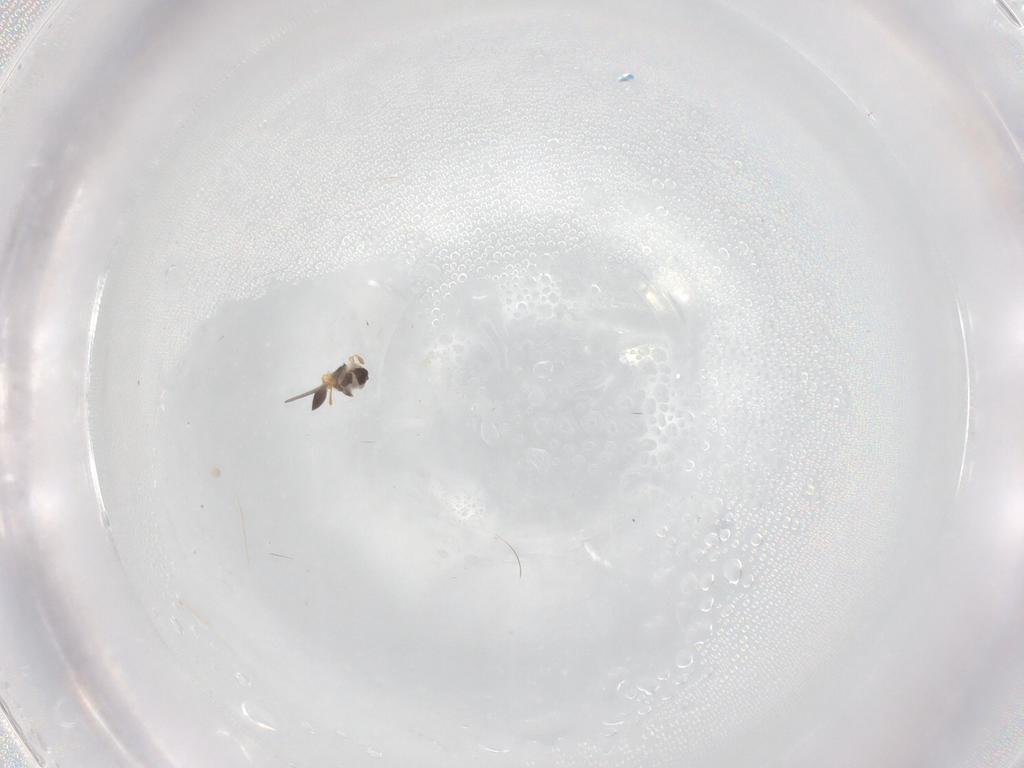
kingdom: Animalia
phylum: Arthropoda
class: Insecta
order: Hymenoptera
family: Platygastridae
